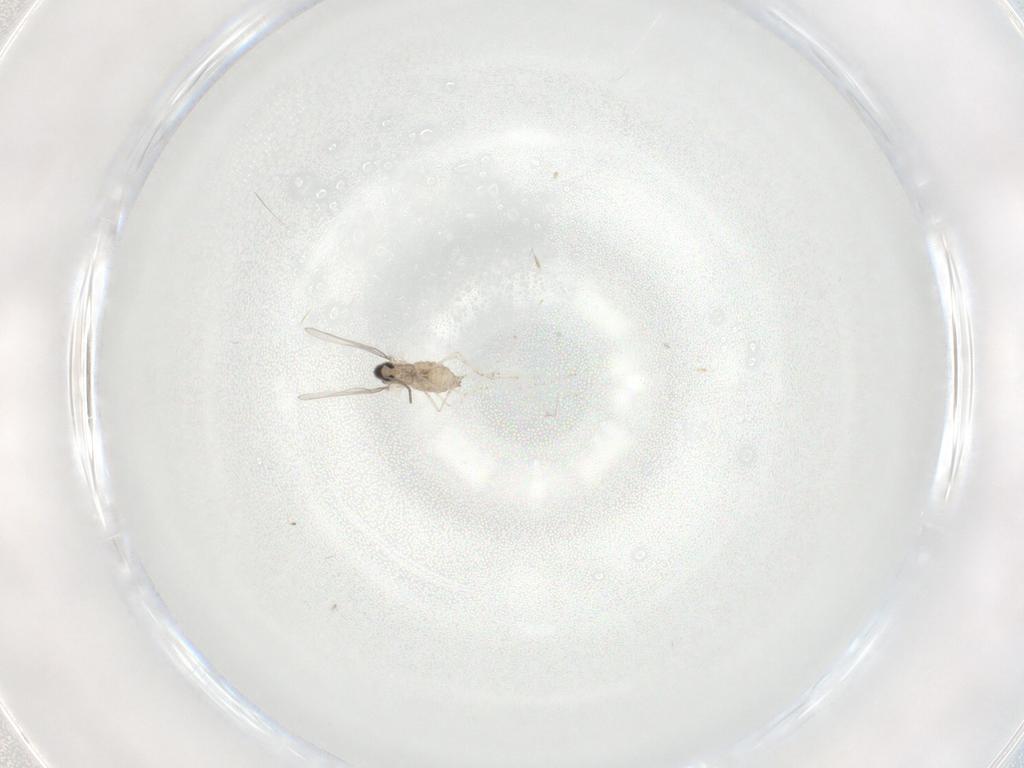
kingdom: Animalia
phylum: Arthropoda
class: Insecta
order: Diptera
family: Cecidomyiidae
